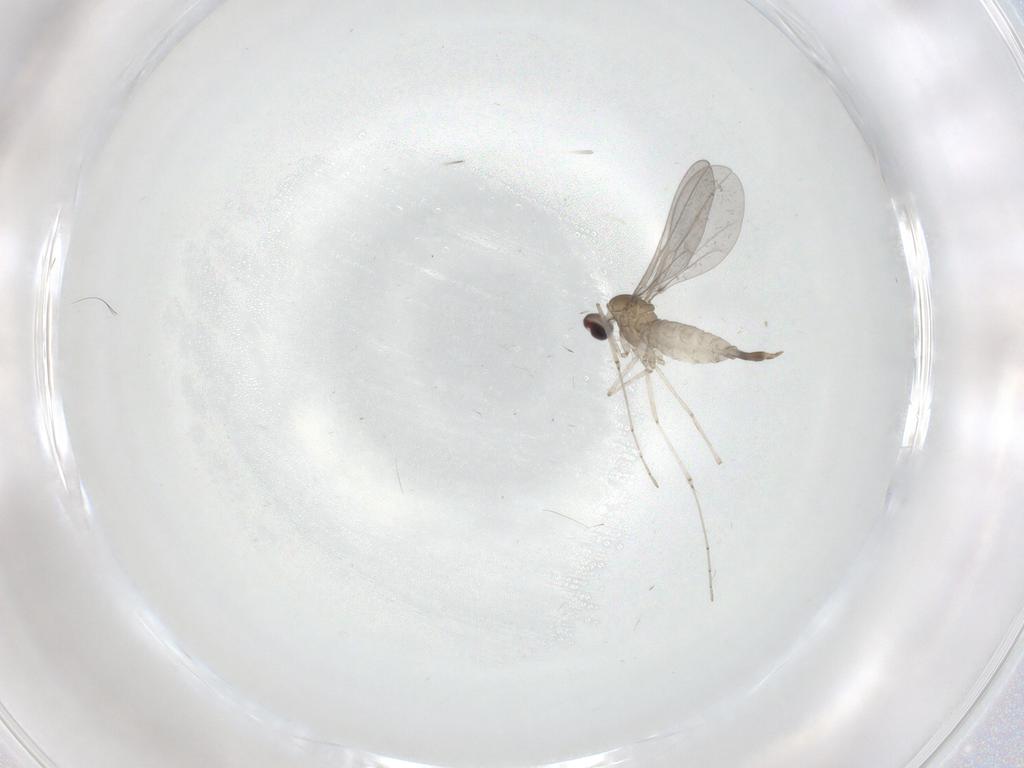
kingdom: Animalia
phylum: Arthropoda
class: Insecta
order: Diptera
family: Cecidomyiidae
